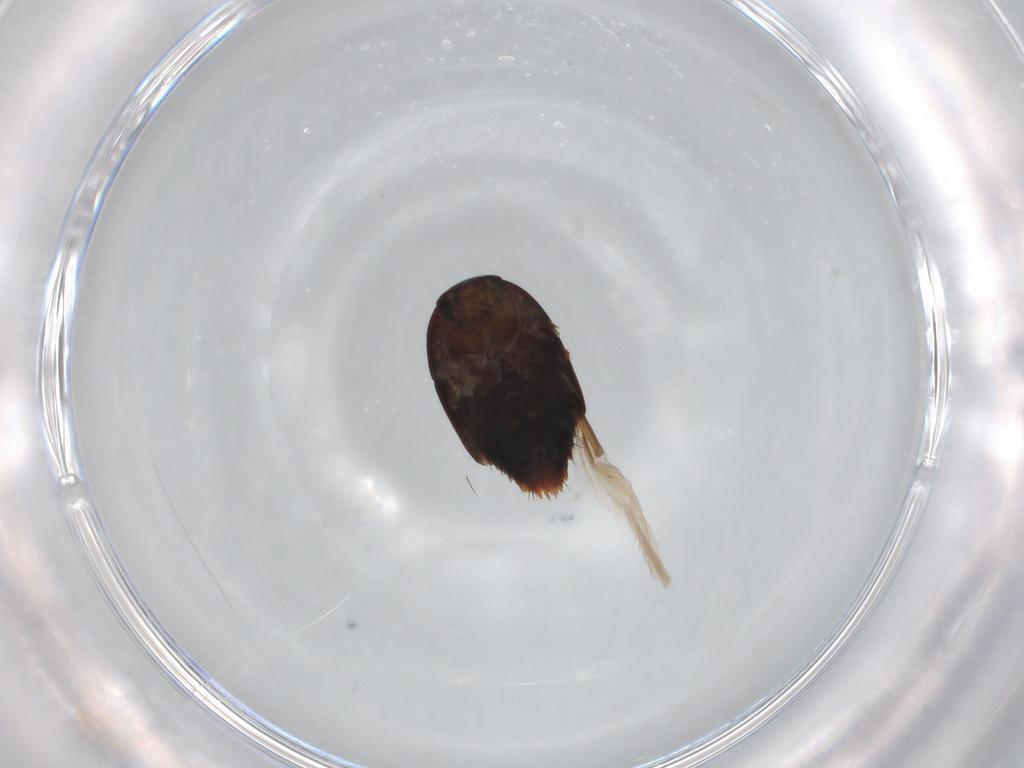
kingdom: Animalia
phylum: Arthropoda
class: Insecta
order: Coleoptera
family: Staphylinidae
